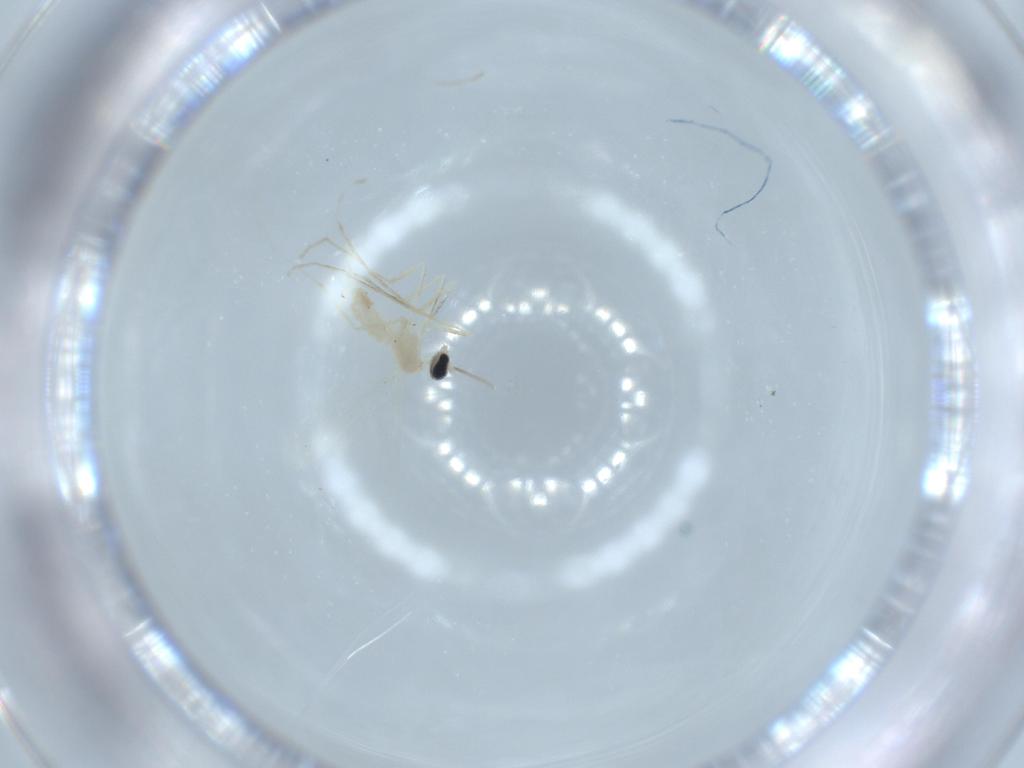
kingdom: Animalia
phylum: Arthropoda
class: Insecta
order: Diptera
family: Cecidomyiidae
